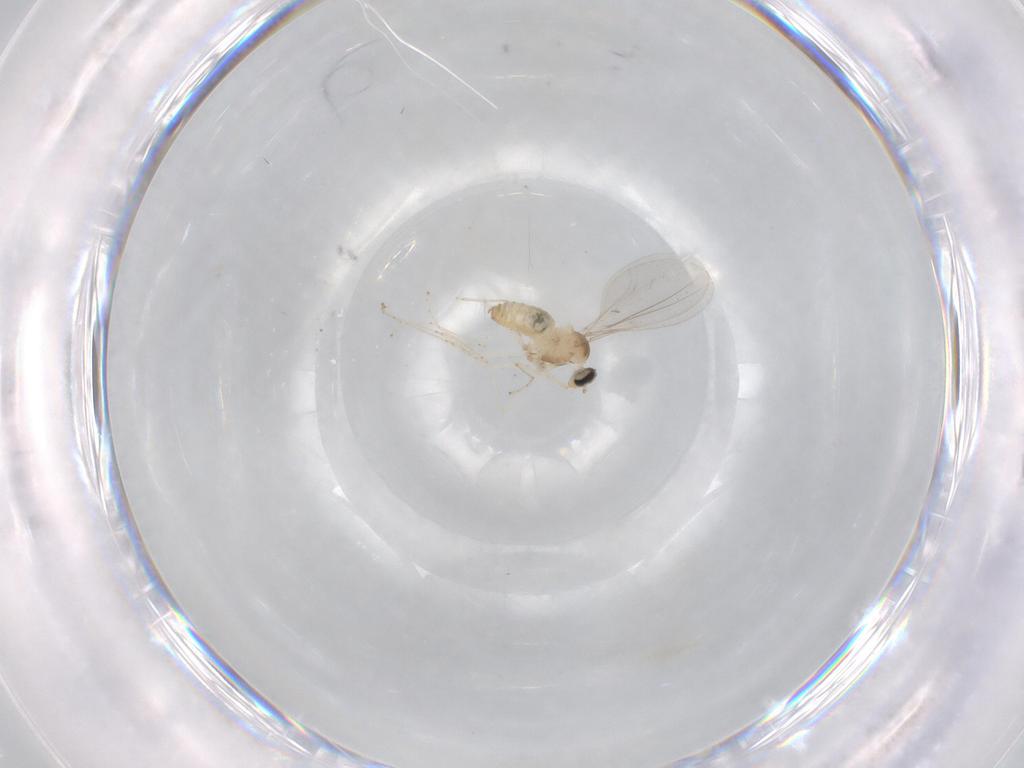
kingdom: Animalia
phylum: Arthropoda
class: Insecta
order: Diptera
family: Cecidomyiidae
